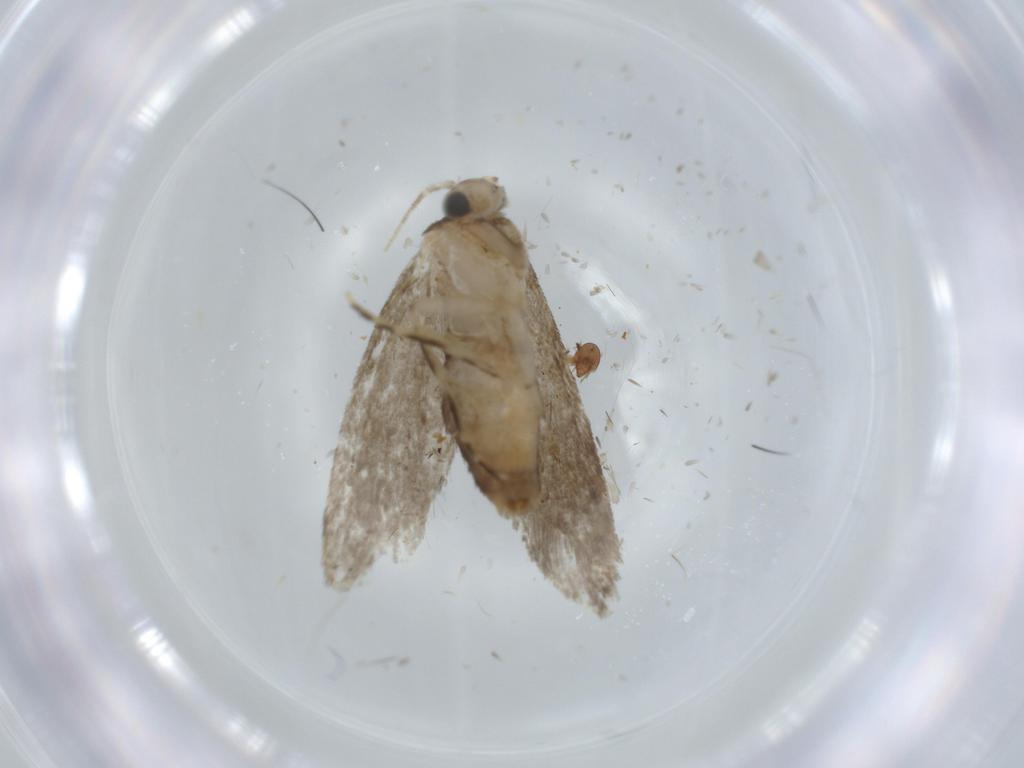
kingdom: Animalia
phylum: Arthropoda
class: Insecta
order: Lepidoptera
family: Tineidae
